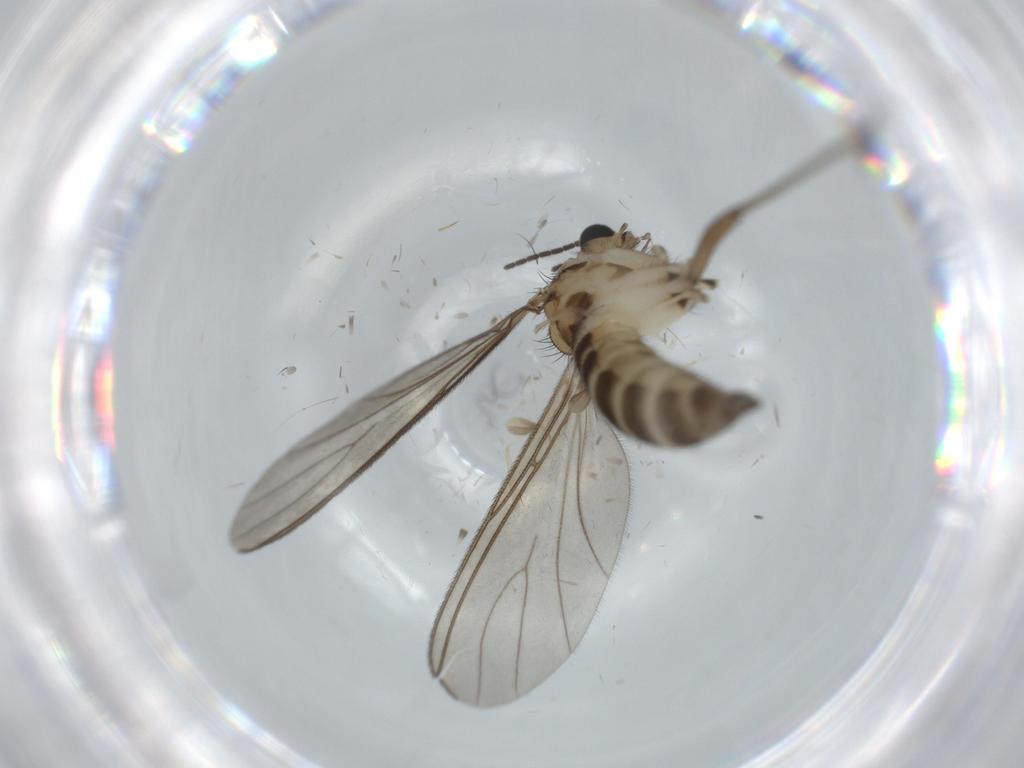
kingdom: Animalia
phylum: Arthropoda
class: Insecta
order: Diptera
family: Sciaridae
